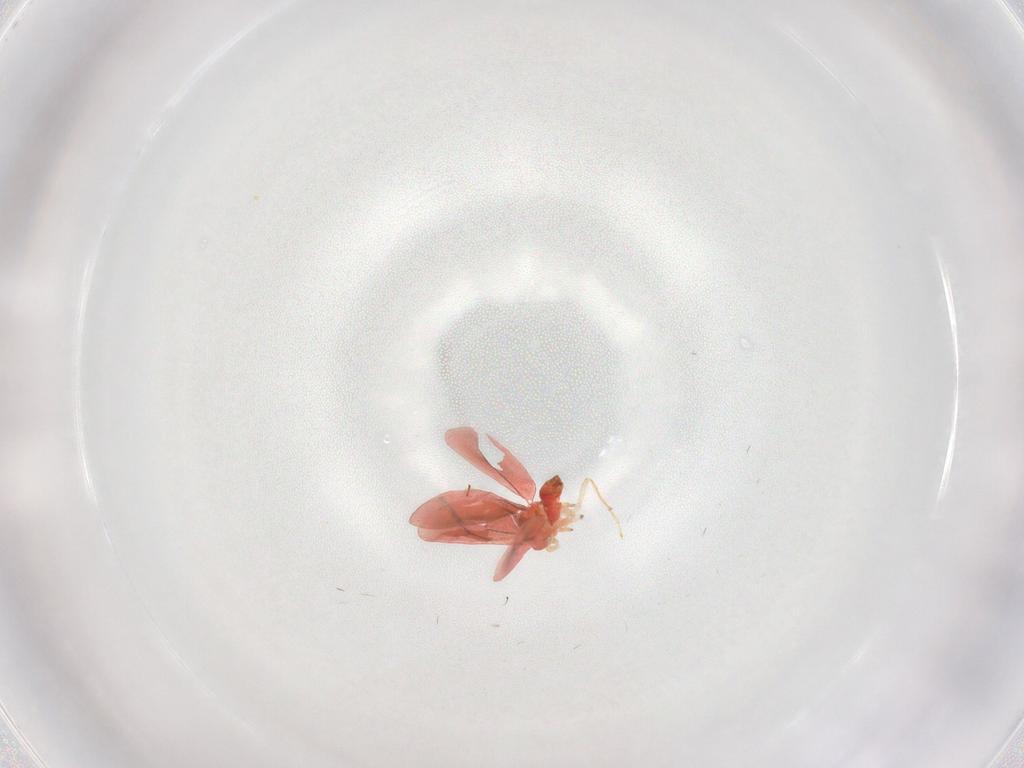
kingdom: Animalia
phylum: Arthropoda
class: Insecta
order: Hemiptera
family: Aleyrodidae
